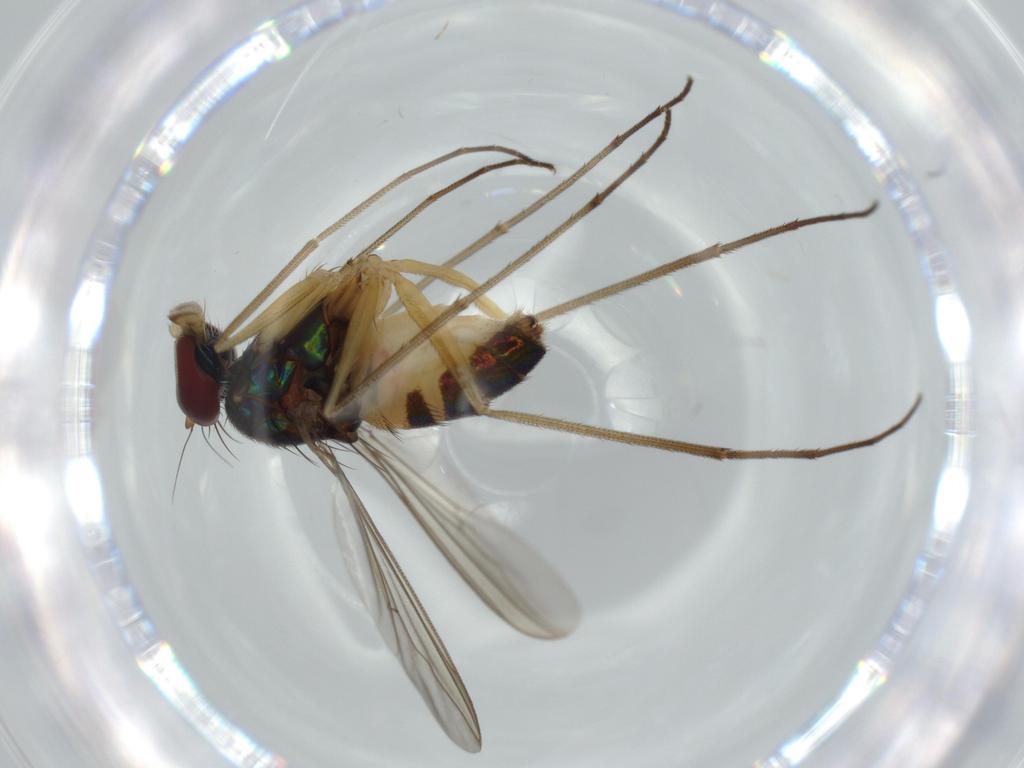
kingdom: Animalia
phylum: Arthropoda
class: Insecta
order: Diptera
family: Dolichopodidae
